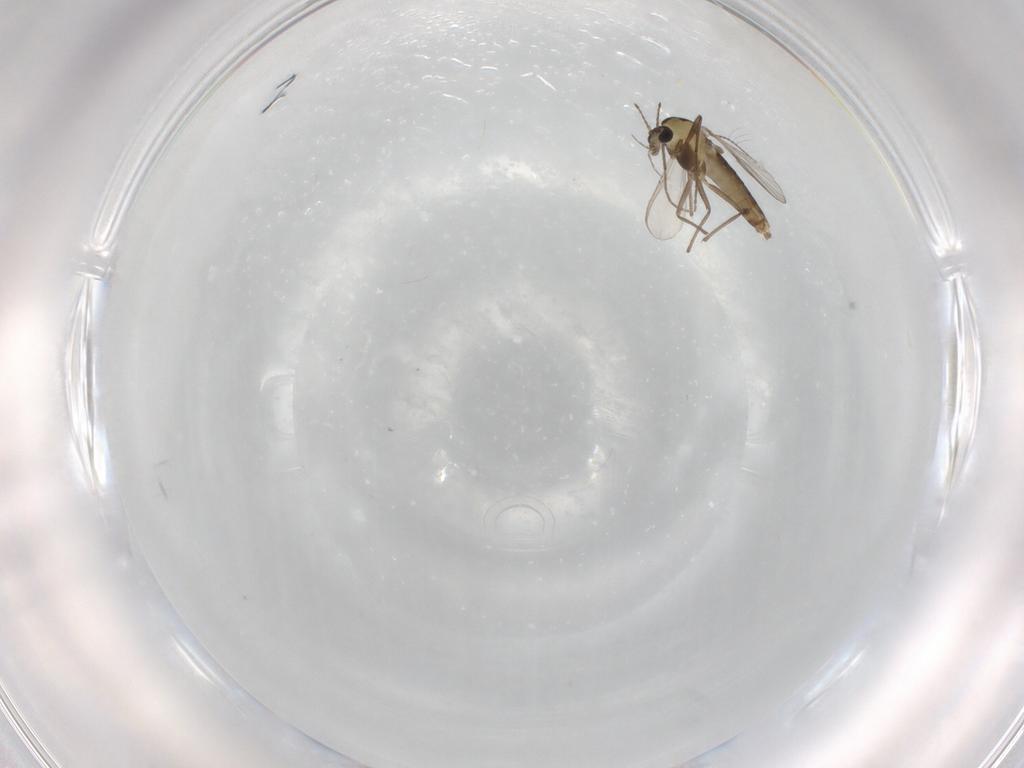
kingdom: Animalia
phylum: Arthropoda
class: Insecta
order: Diptera
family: Chironomidae
